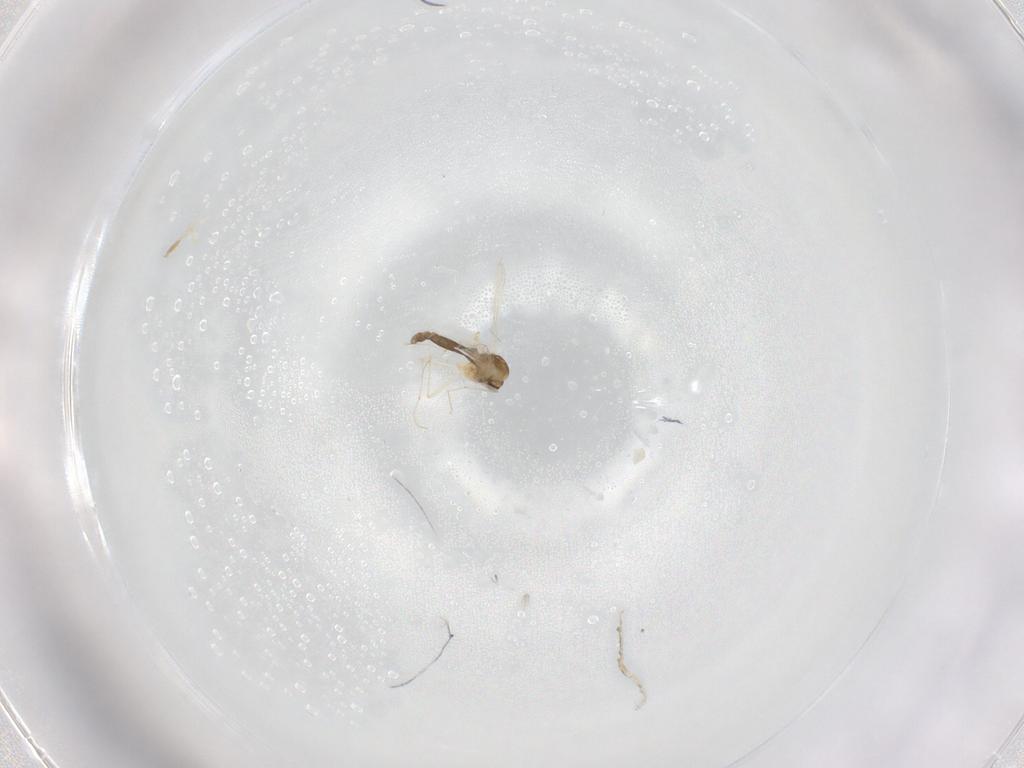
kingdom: Animalia
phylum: Arthropoda
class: Insecta
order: Diptera
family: Chironomidae
